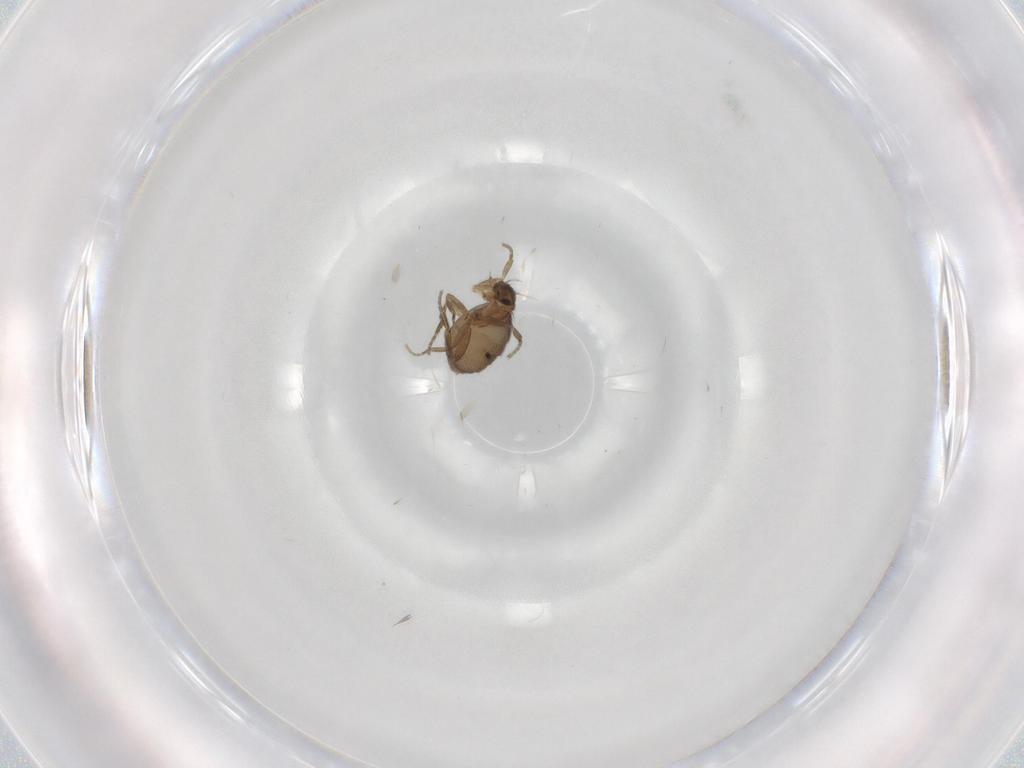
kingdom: Animalia
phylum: Arthropoda
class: Insecta
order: Diptera
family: Phoridae
